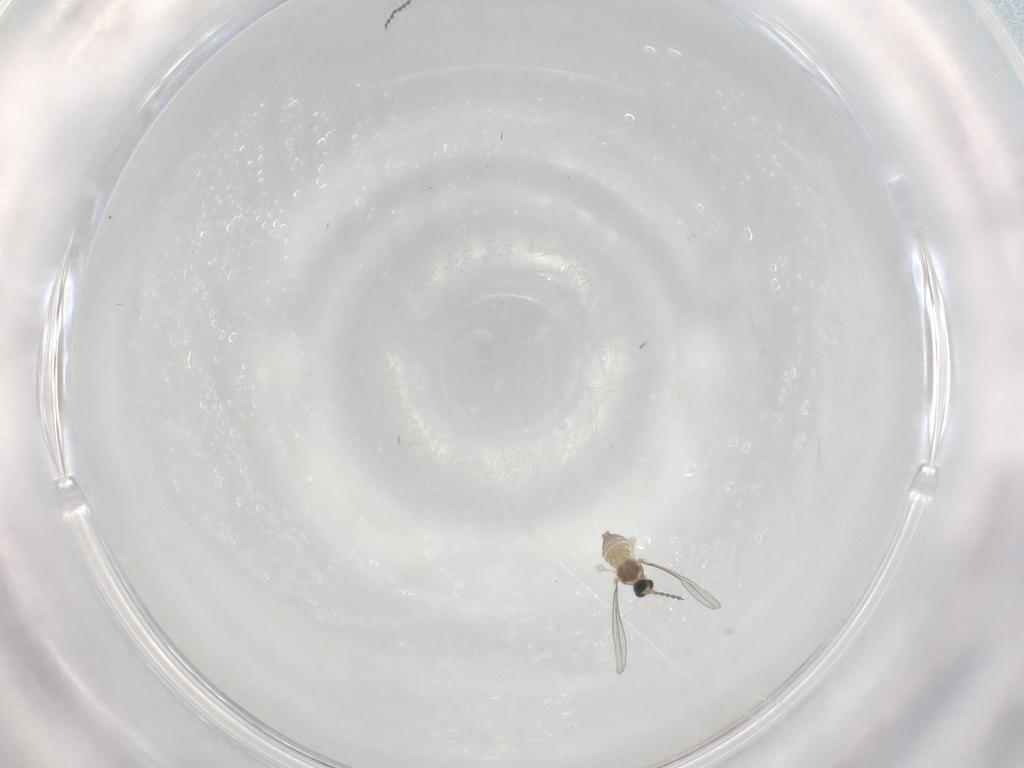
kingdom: Animalia
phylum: Arthropoda
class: Insecta
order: Diptera
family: Cecidomyiidae
